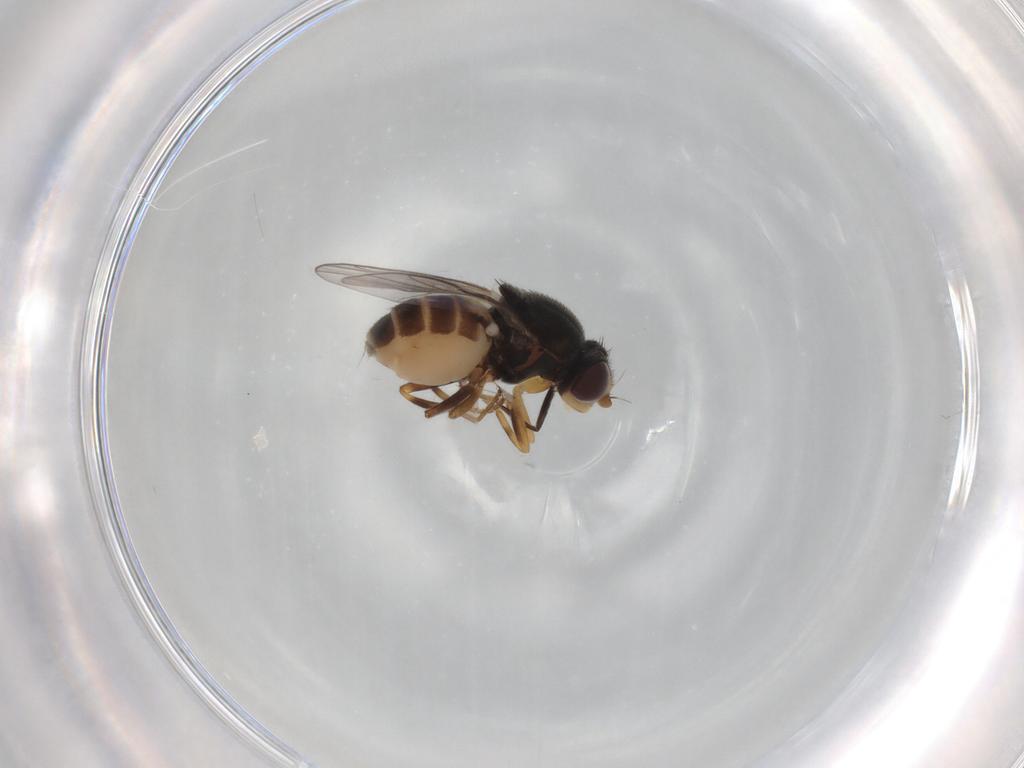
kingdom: Animalia
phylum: Arthropoda
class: Insecta
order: Diptera
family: Chloropidae
